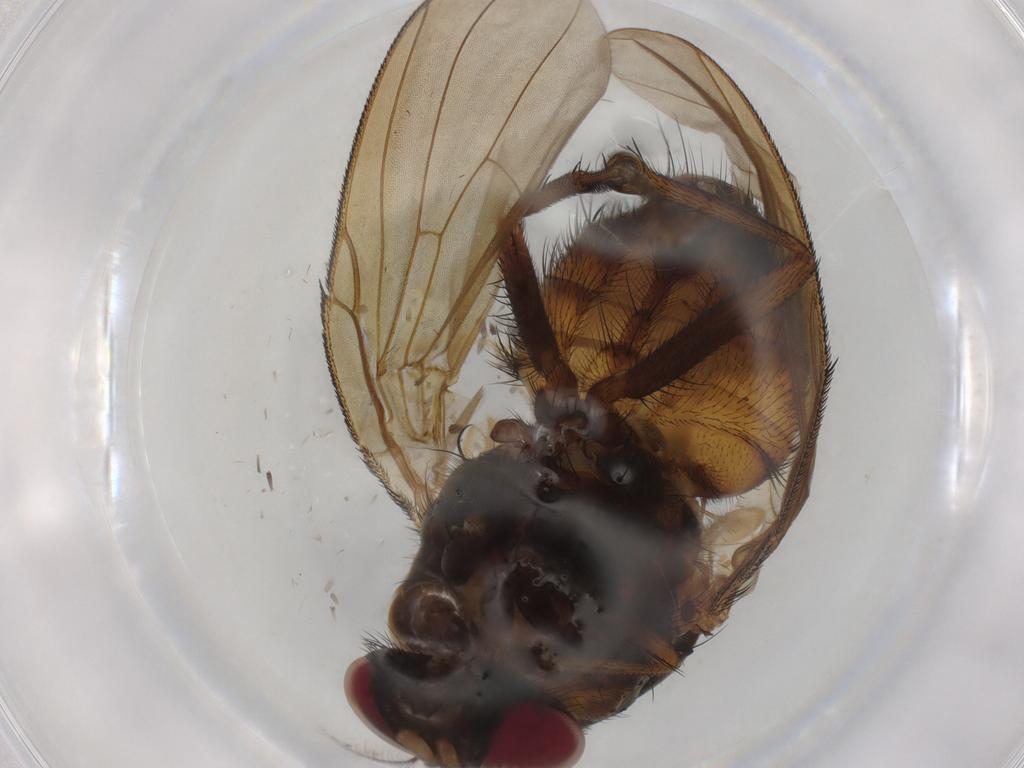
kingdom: Animalia
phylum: Arthropoda
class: Insecta
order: Diptera
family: Muscidae
